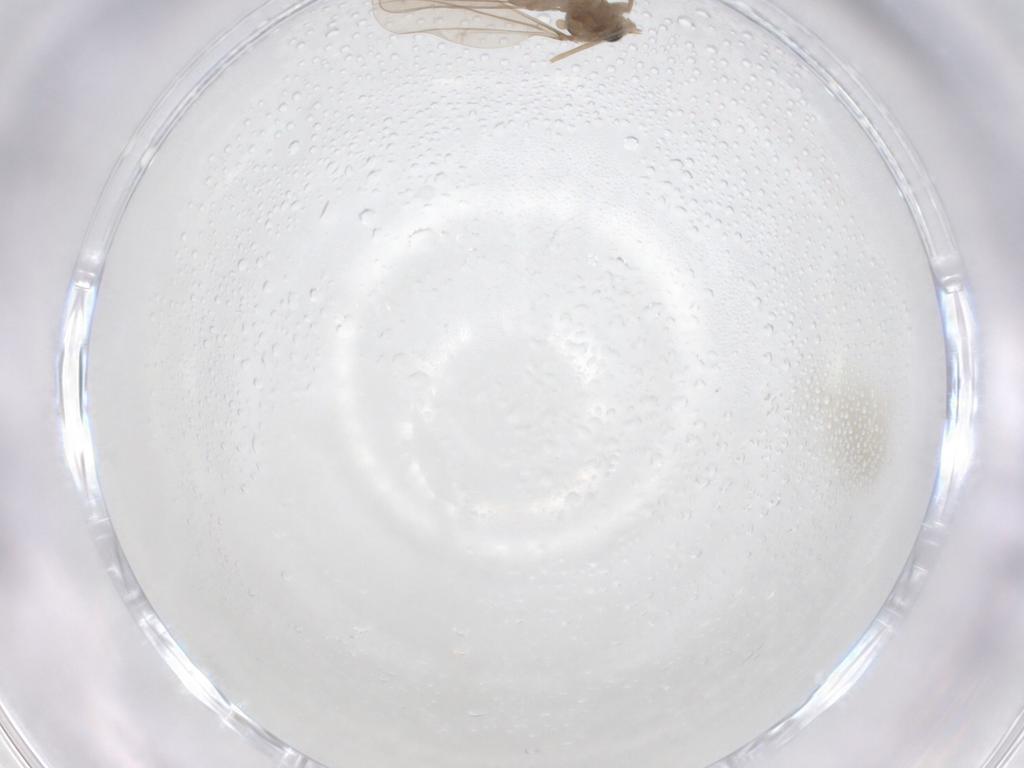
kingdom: Animalia
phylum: Arthropoda
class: Insecta
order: Diptera
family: Cecidomyiidae
